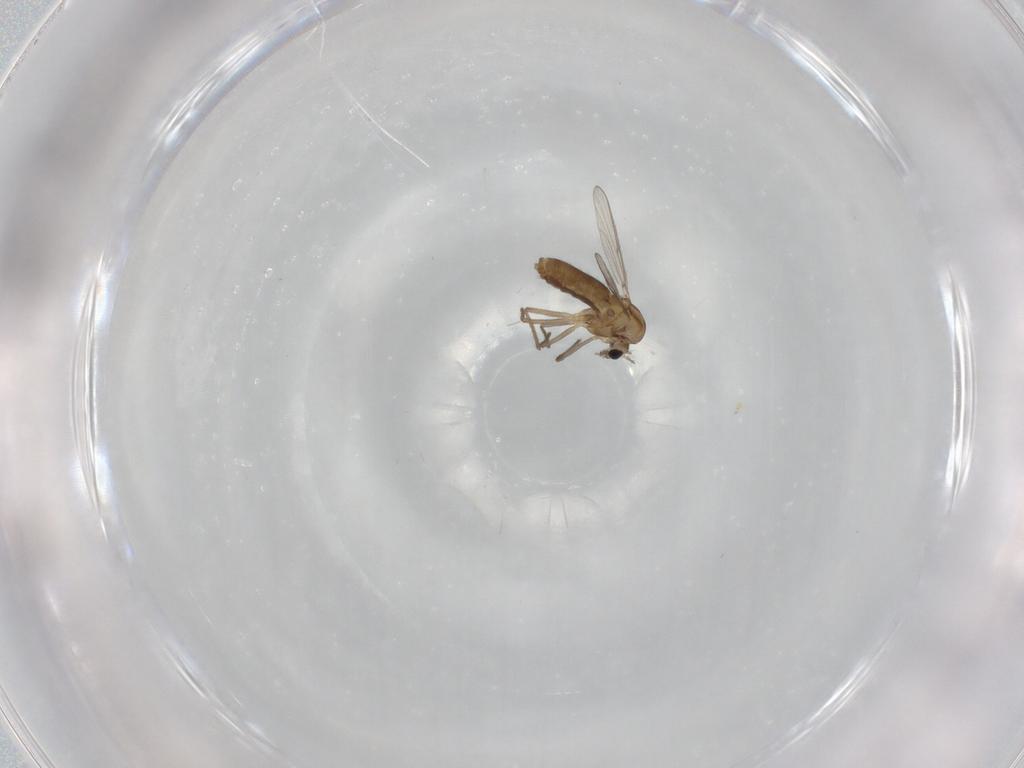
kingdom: Animalia
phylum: Arthropoda
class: Insecta
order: Diptera
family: Chironomidae
